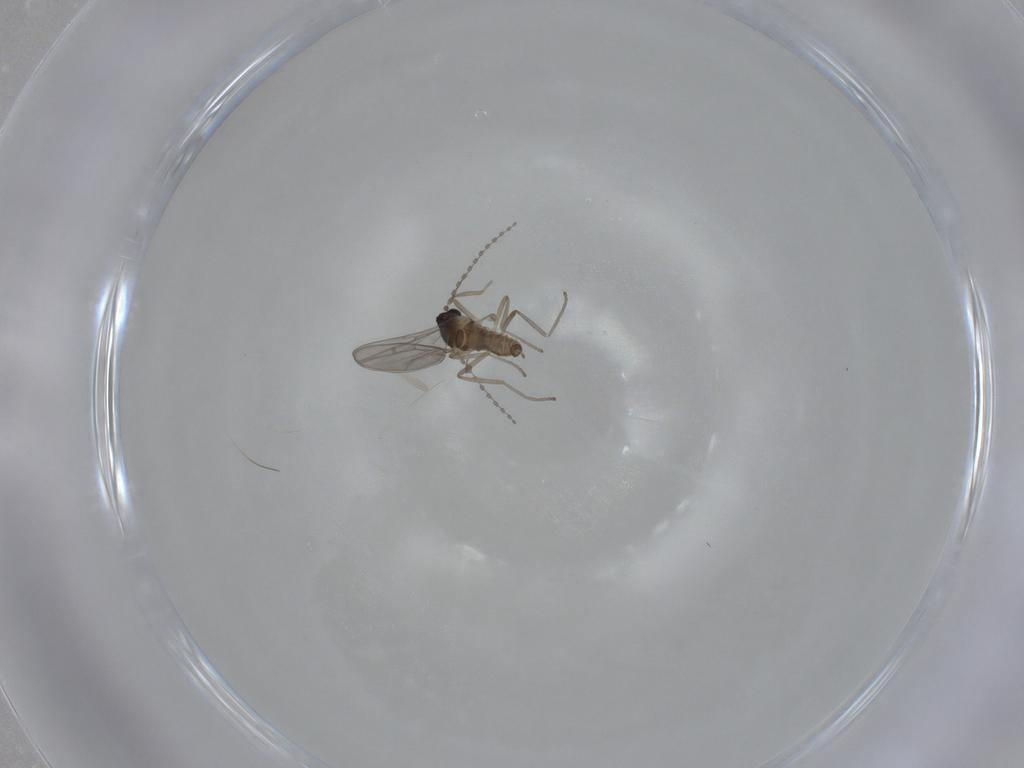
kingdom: Animalia
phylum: Arthropoda
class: Insecta
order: Diptera
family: Cecidomyiidae
